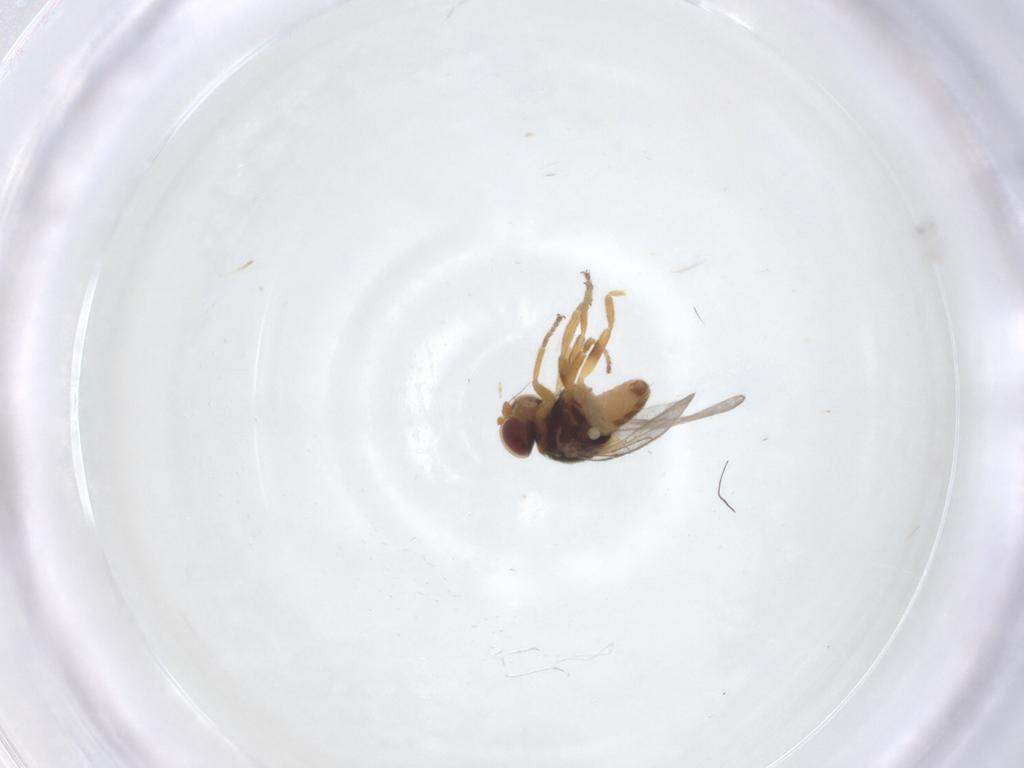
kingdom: Animalia
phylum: Arthropoda
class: Insecta
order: Diptera
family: Chloropidae
